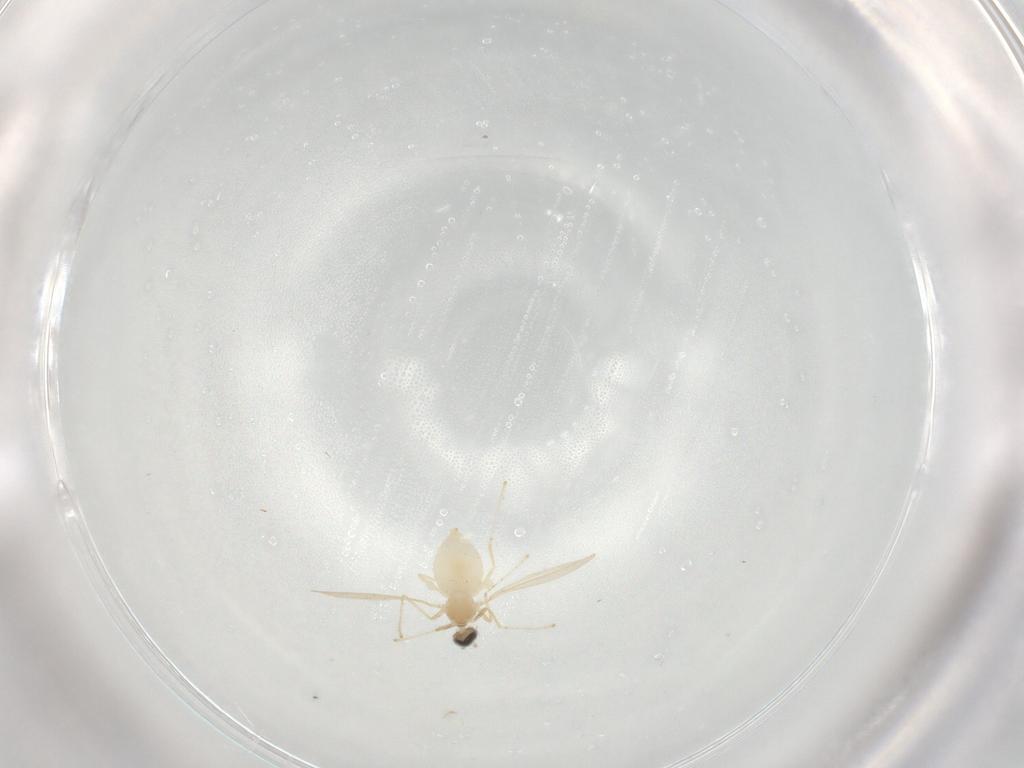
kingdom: Animalia
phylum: Arthropoda
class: Insecta
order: Diptera
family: Cecidomyiidae
